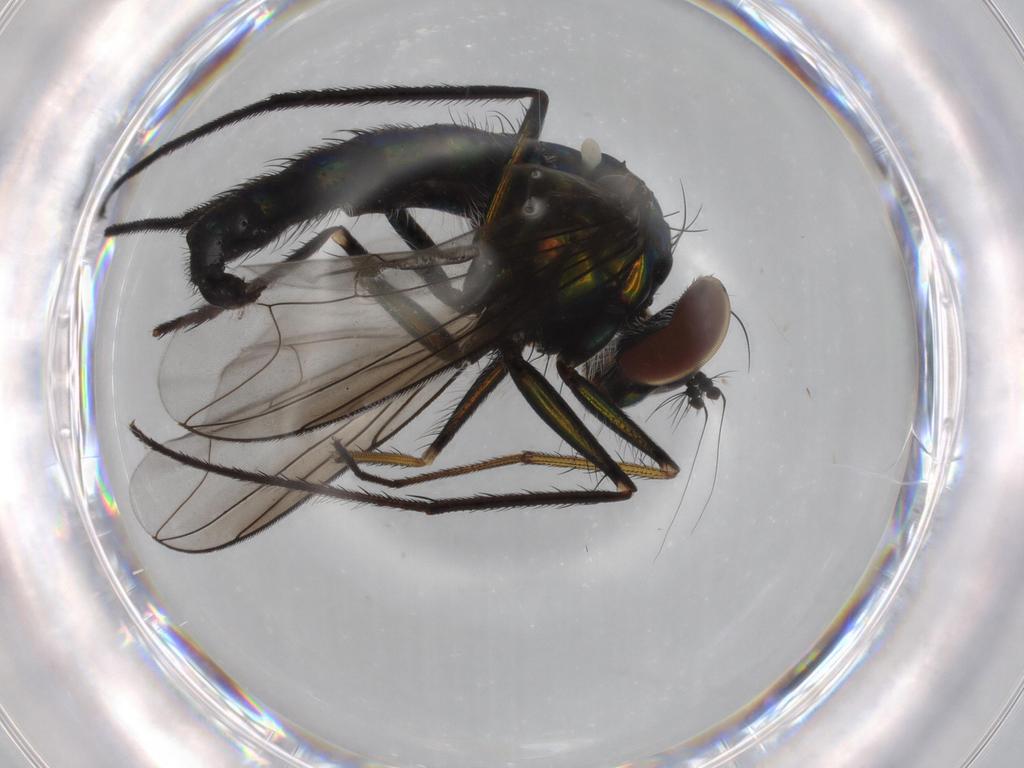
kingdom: Animalia
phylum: Arthropoda
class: Insecta
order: Diptera
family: Dolichopodidae
